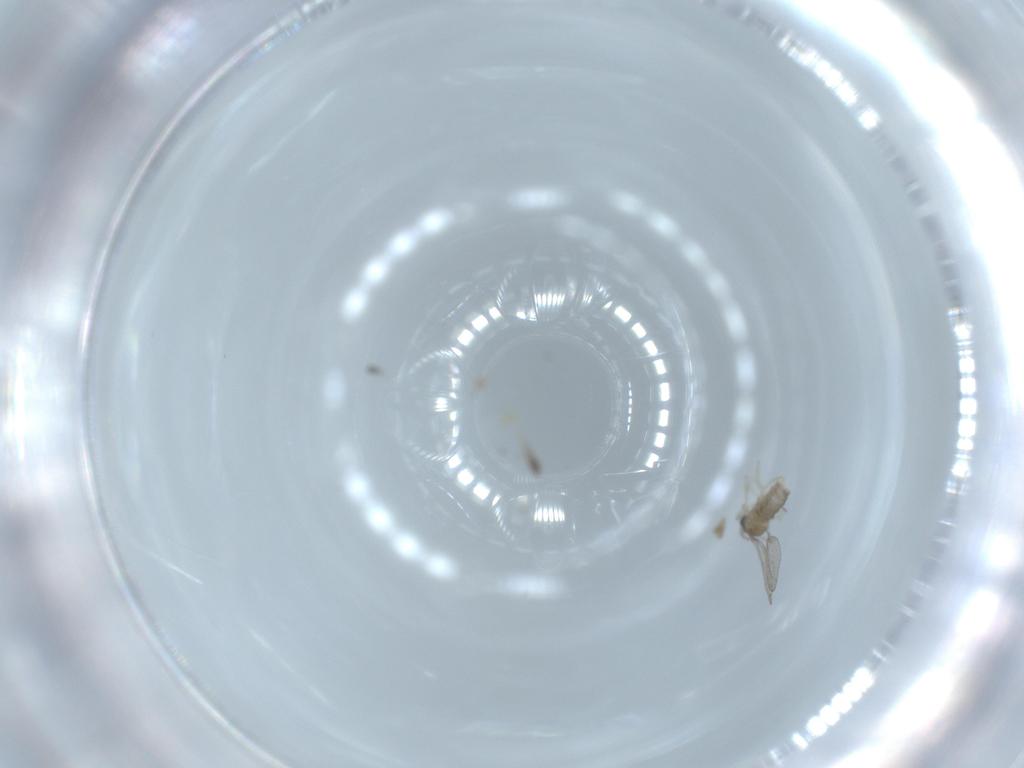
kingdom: Animalia
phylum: Arthropoda
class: Insecta
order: Diptera
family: Cecidomyiidae
